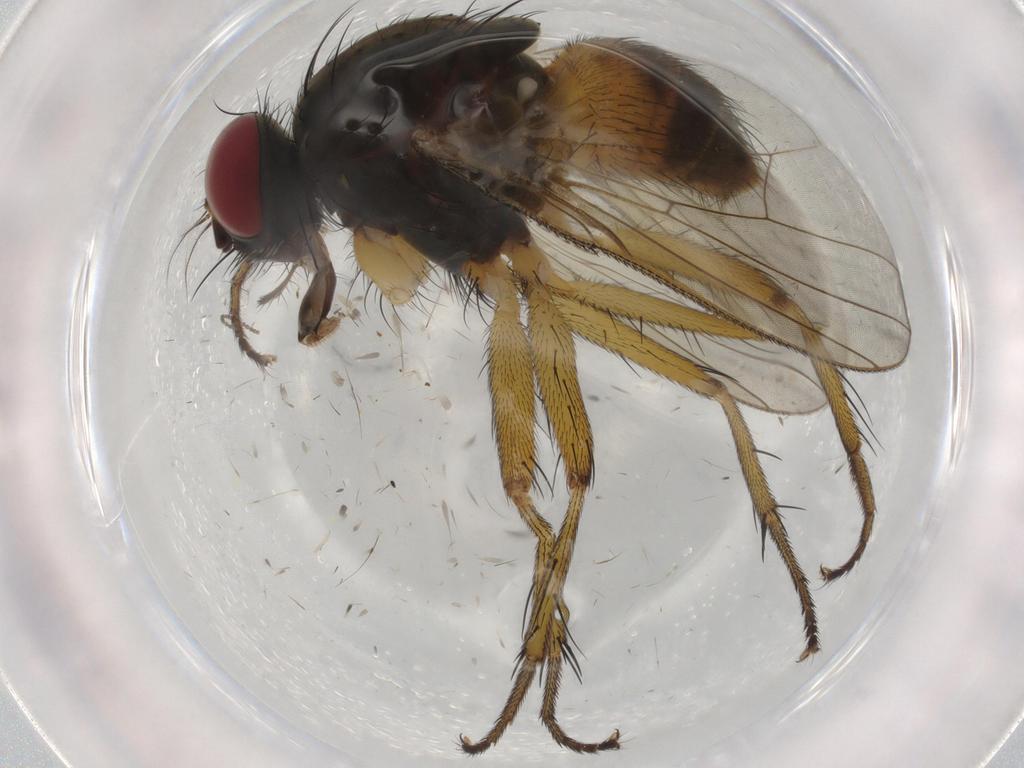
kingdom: Animalia
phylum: Arthropoda
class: Insecta
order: Diptera
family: Muscidae
